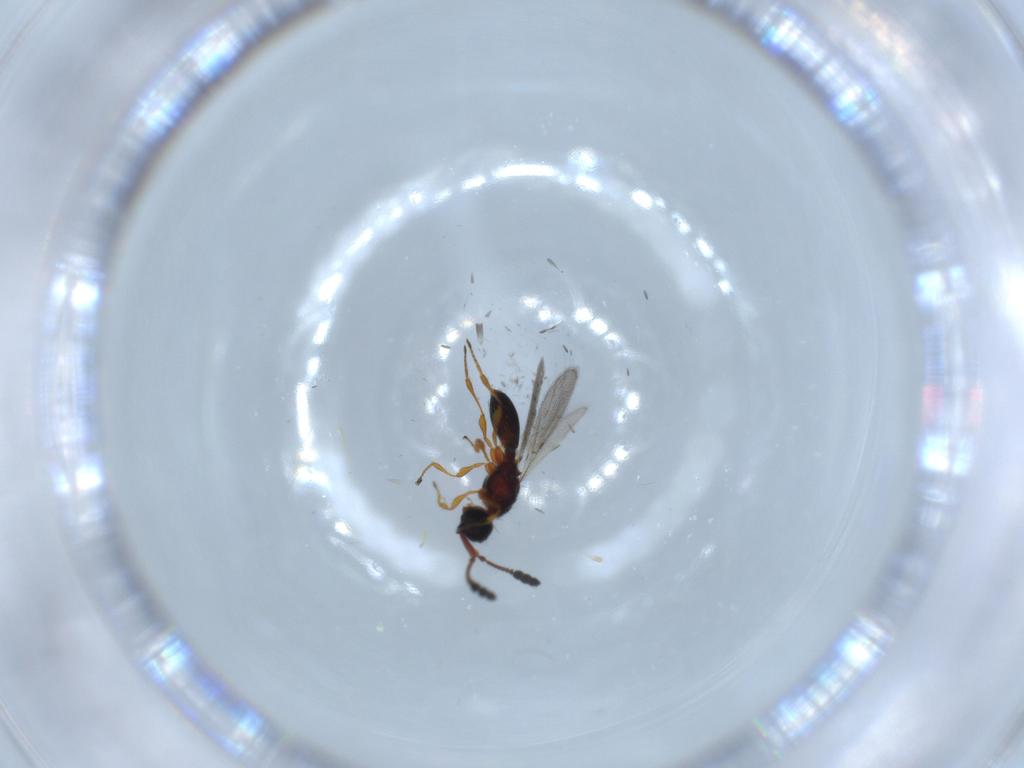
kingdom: Animalia
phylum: Arthropoda
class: Insecta
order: Hymenoptera
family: Diapriidae
